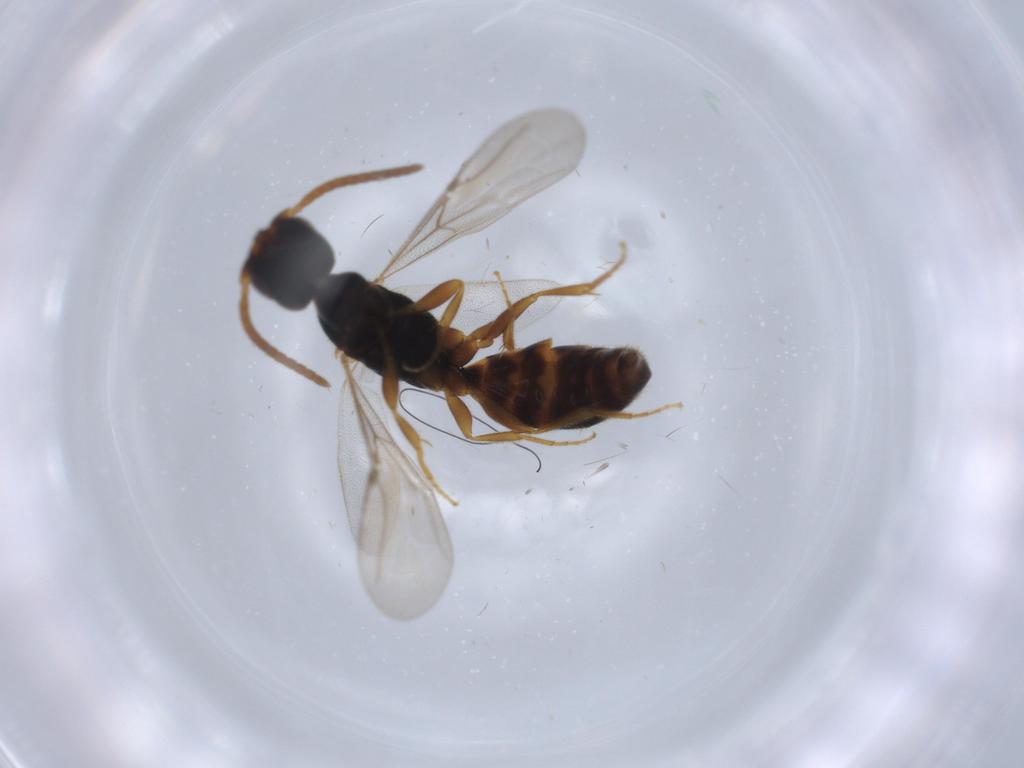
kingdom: Animalia
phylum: Arthropoda
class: Insecta
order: Hymenoptera
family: Bethylidae
